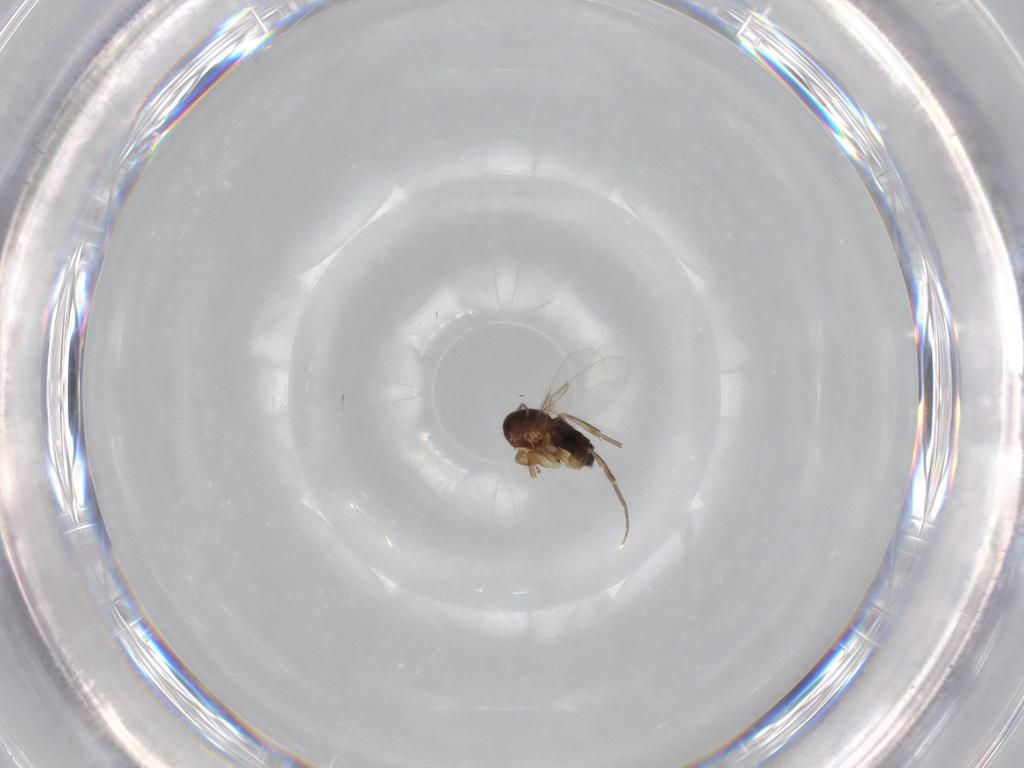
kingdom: Animalia
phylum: Arthropoda
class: Insecta
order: Diptera
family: Phoridae
